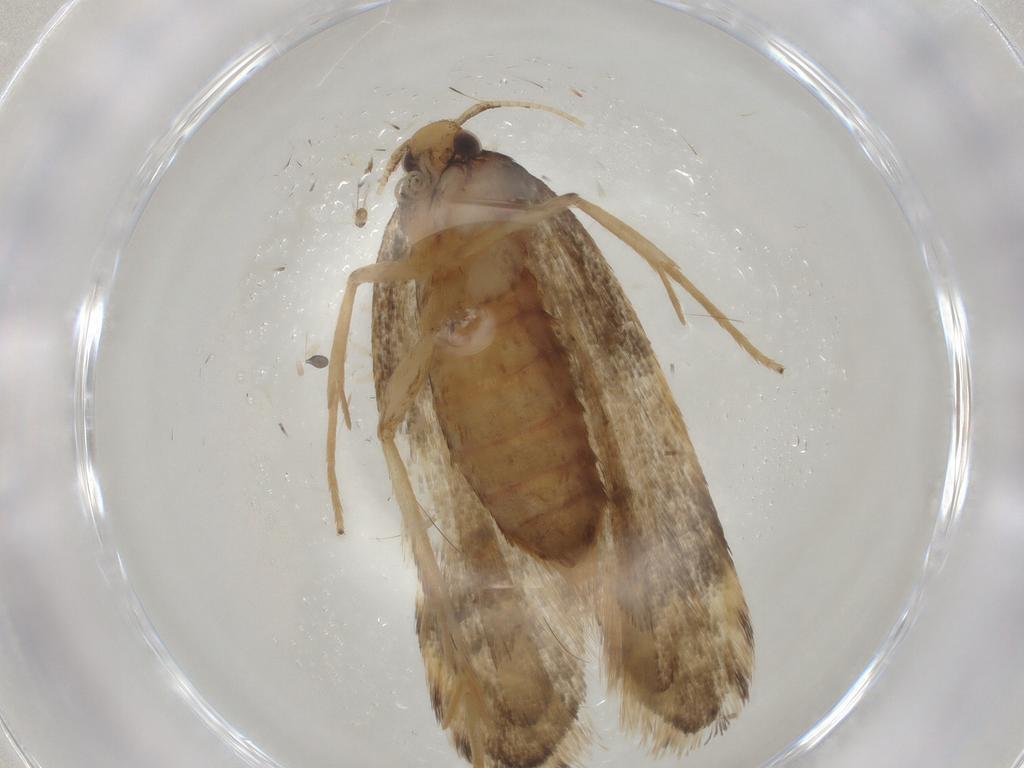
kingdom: Animalia
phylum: Arthropoda
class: Insecta
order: Lepidoptera
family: Lecithoceridae
